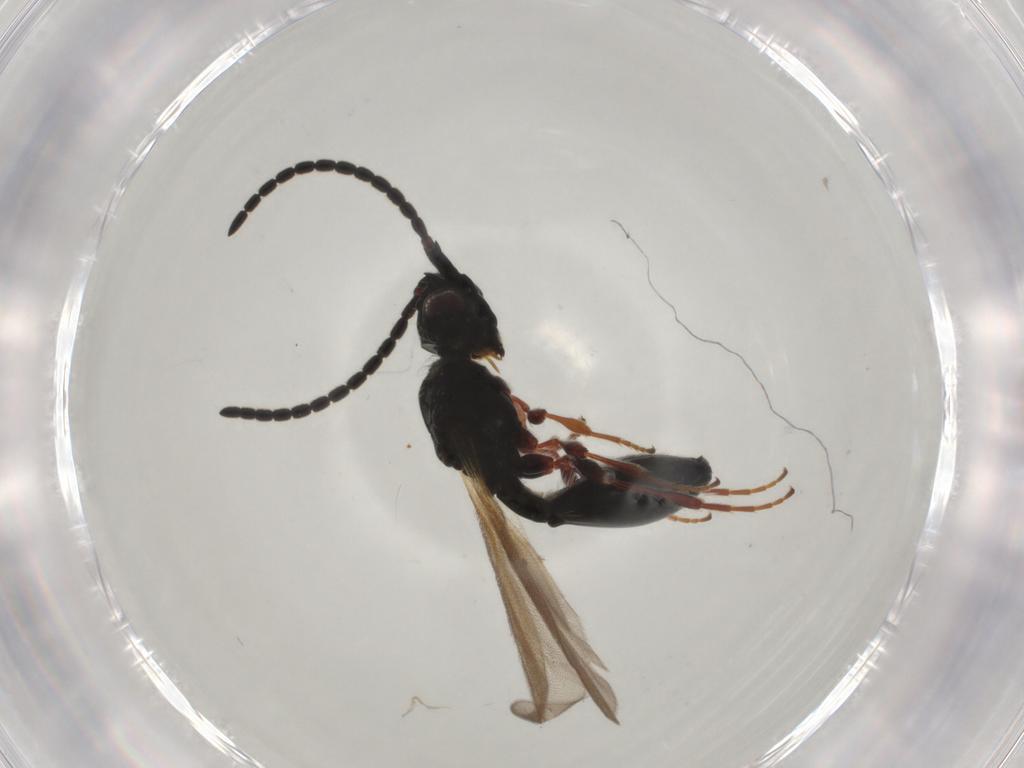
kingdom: Animalia
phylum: Arthropoda
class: Insecta
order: Hymenoptera
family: Diapriidae
